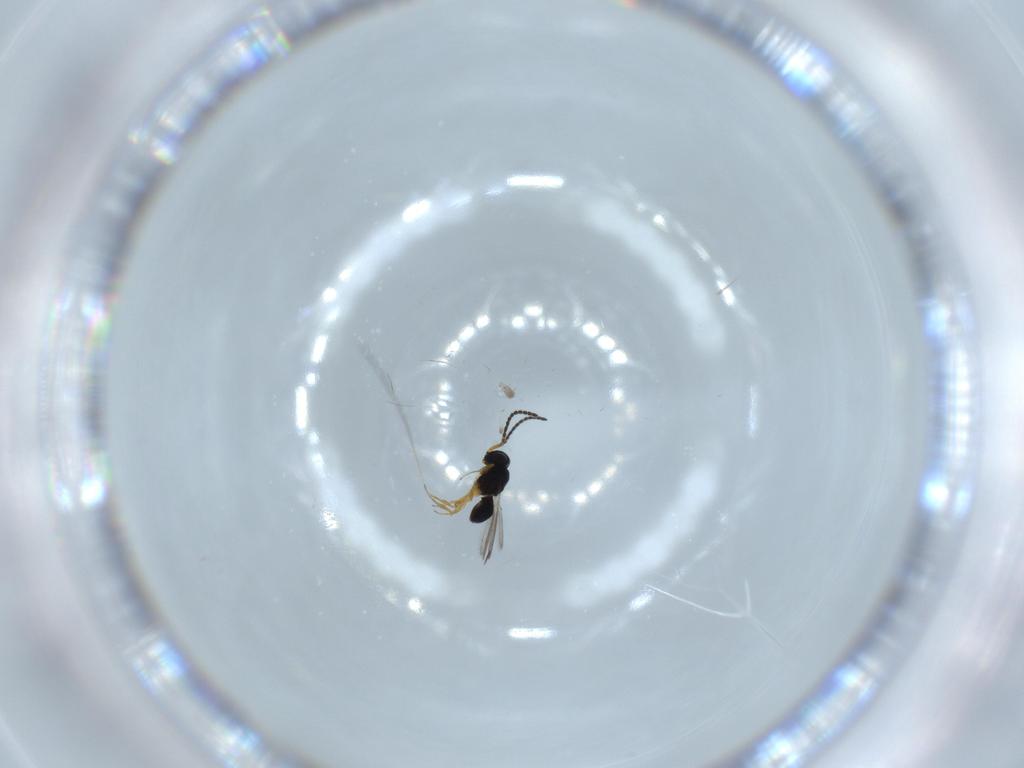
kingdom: Animalia
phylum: Arthropoda
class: Insecta
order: Hymenoptera
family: Scelionidae
